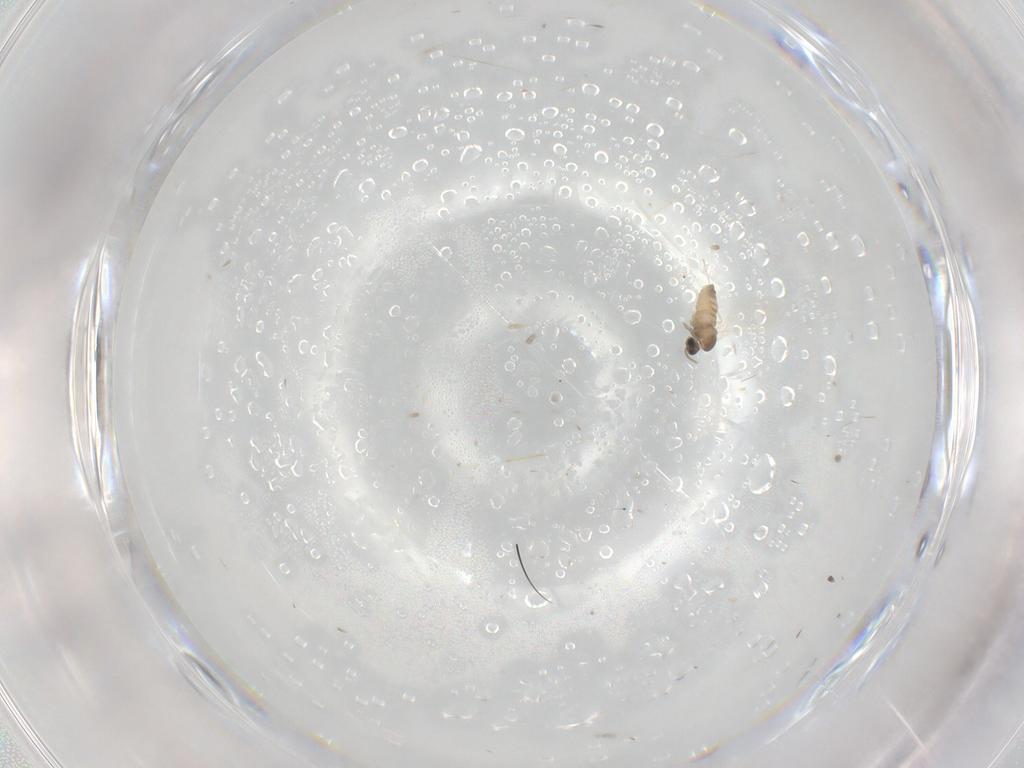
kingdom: Animalia
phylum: Arthropoda
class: Insecta
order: Diptera
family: Cecidomyiidae
